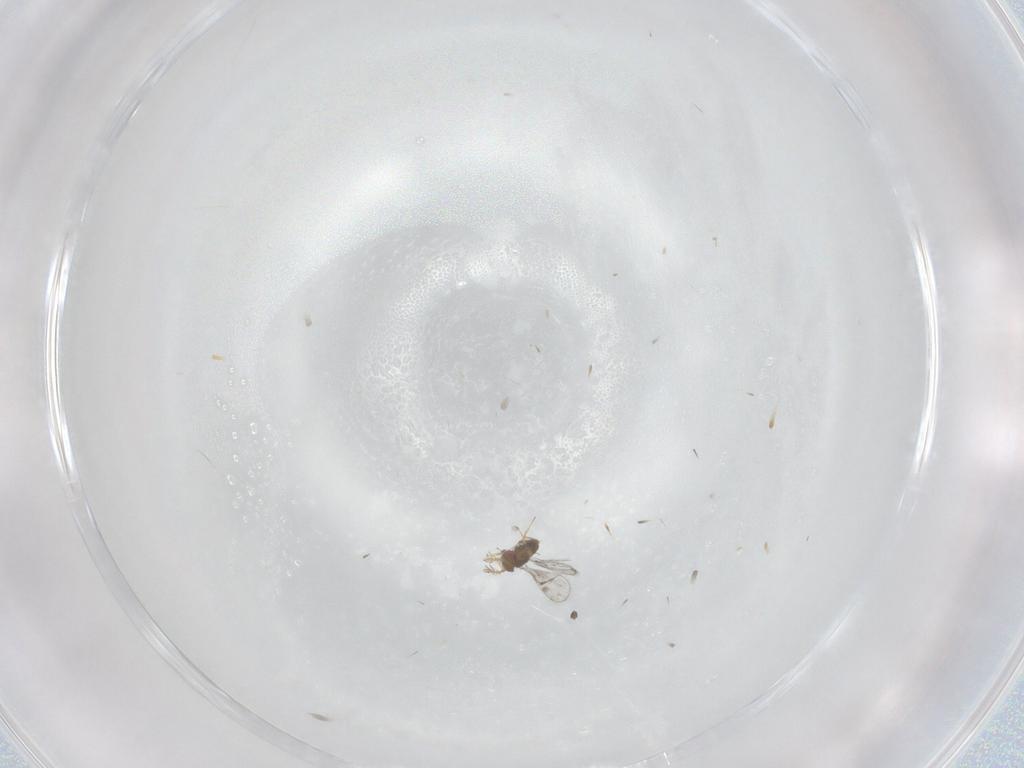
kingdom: Animalia
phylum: Arthropoda
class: Insecta
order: Hymenoptera
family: Trichogrammatidae
